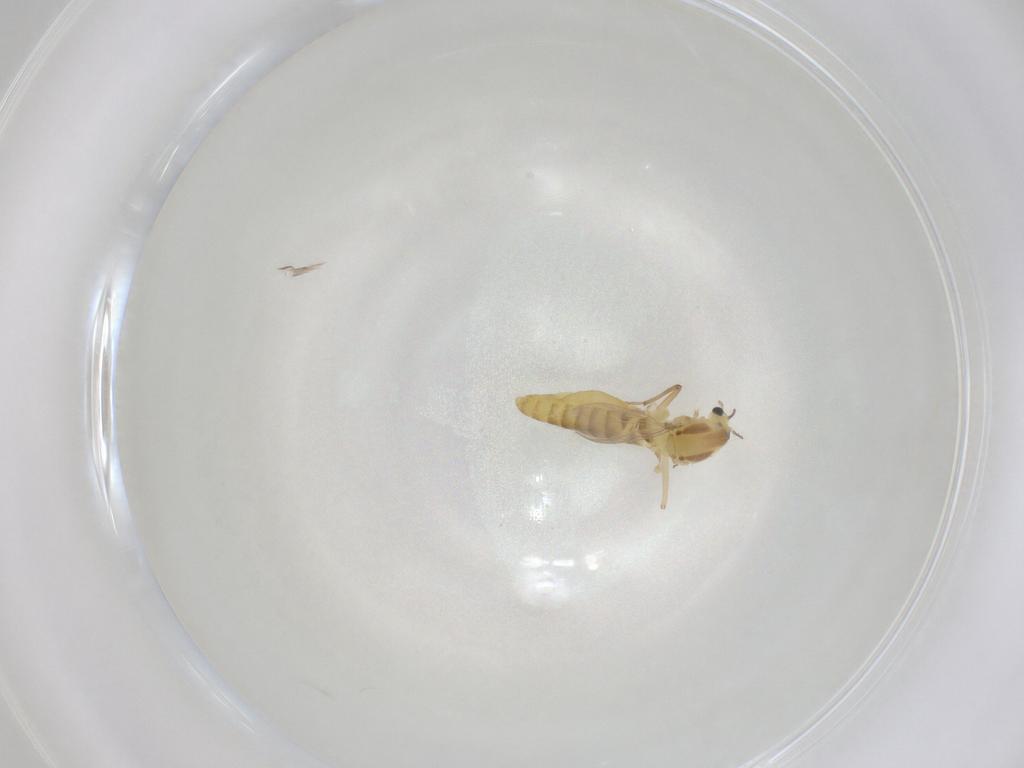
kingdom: Animalia
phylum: Arthropoda
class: Insecta
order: Diptera
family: Chironomidae
